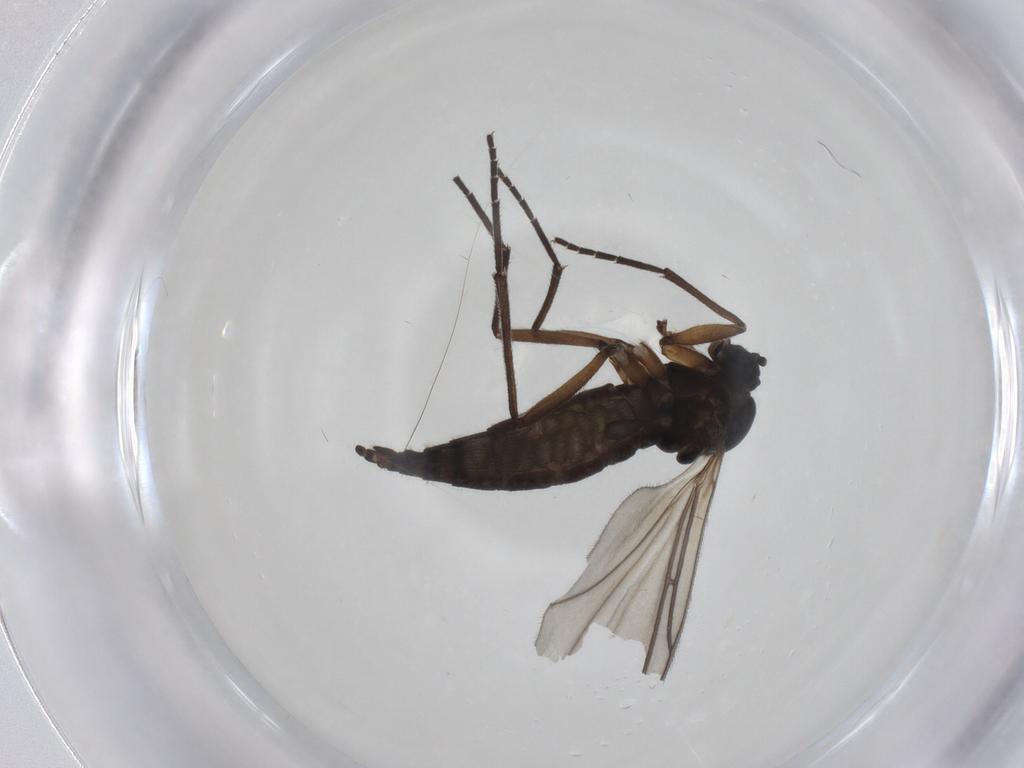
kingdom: Animalia
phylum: Arthropoda
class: Insecta
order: Diptera
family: Sciaridae
